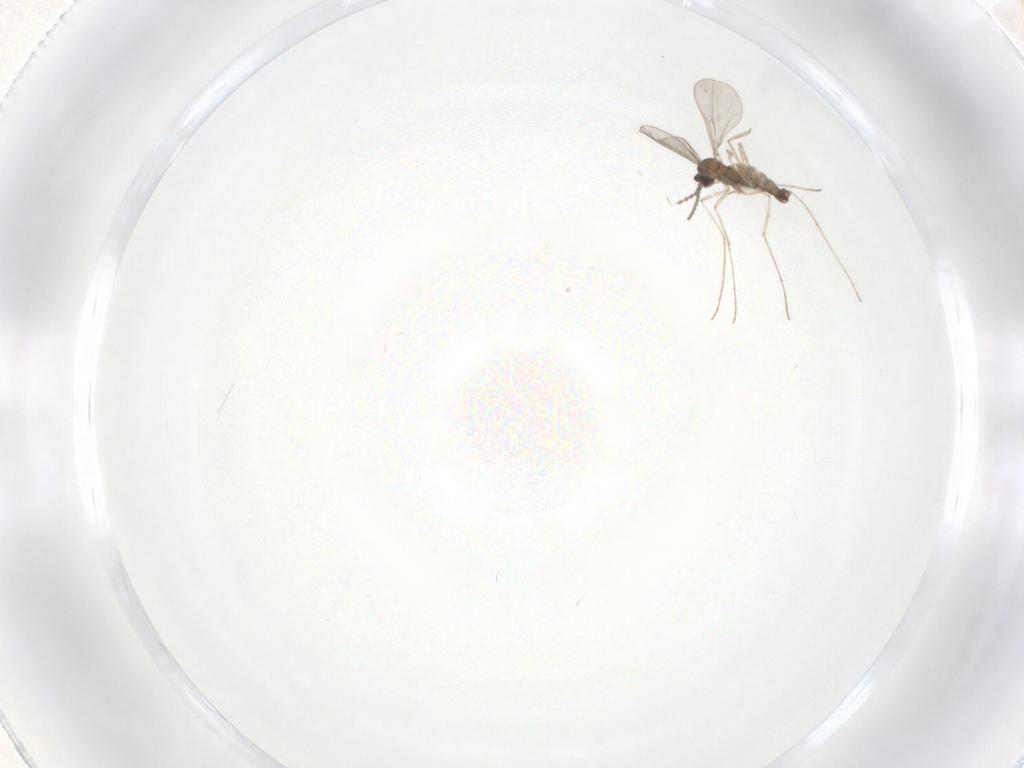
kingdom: Animalia
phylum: Arthropoda
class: Insecta
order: Diptera
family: Cecidomyiidae
